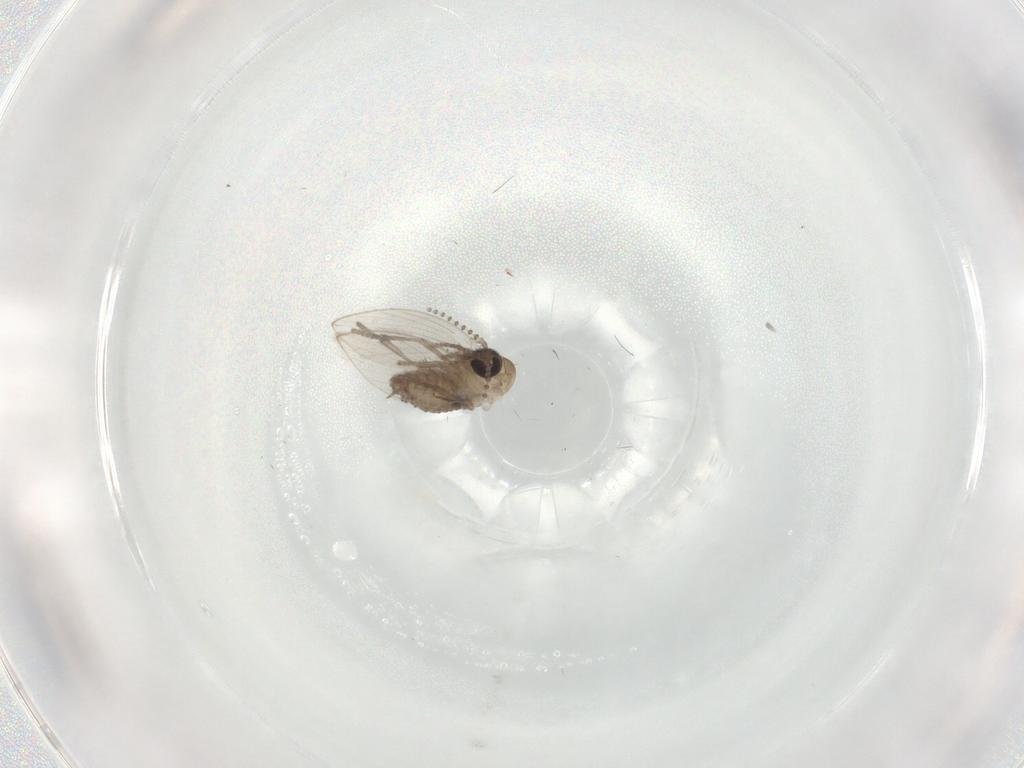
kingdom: Animalia
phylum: Arthropoda
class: Insecta
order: Diptera
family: Psychodidae
